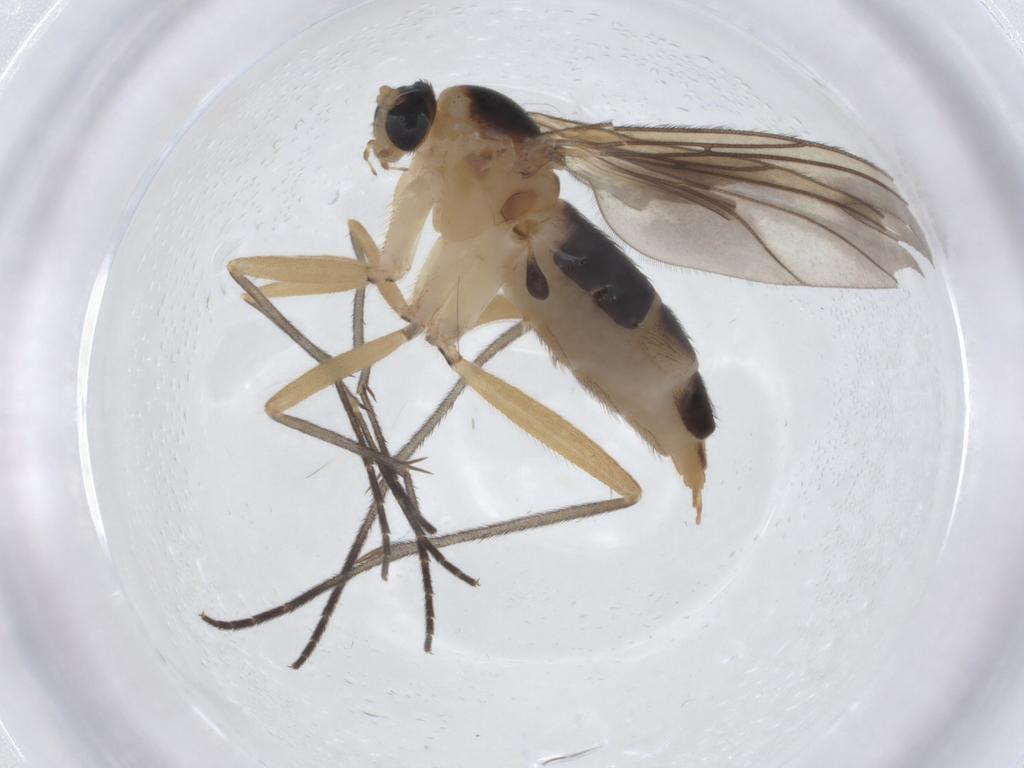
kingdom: Animalia
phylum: Arthropoda
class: Insecta
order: Diptera
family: Sciaridae
